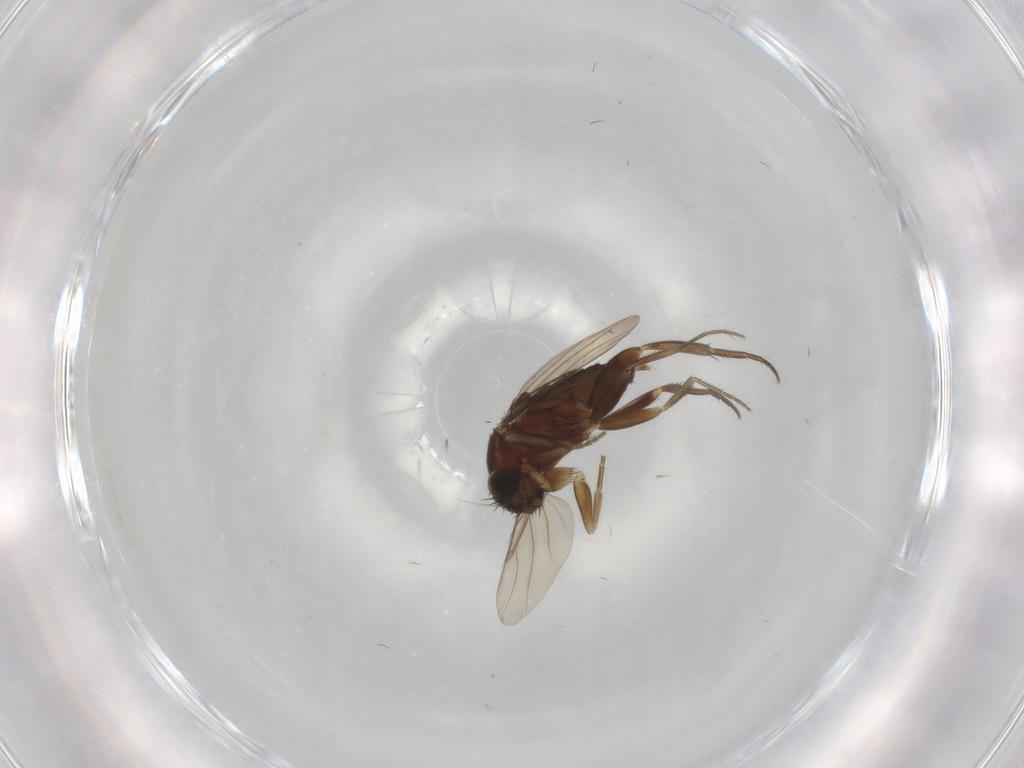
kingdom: Animalia
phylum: Arthropoda
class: Insecta
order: Diptera
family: Phoridae
